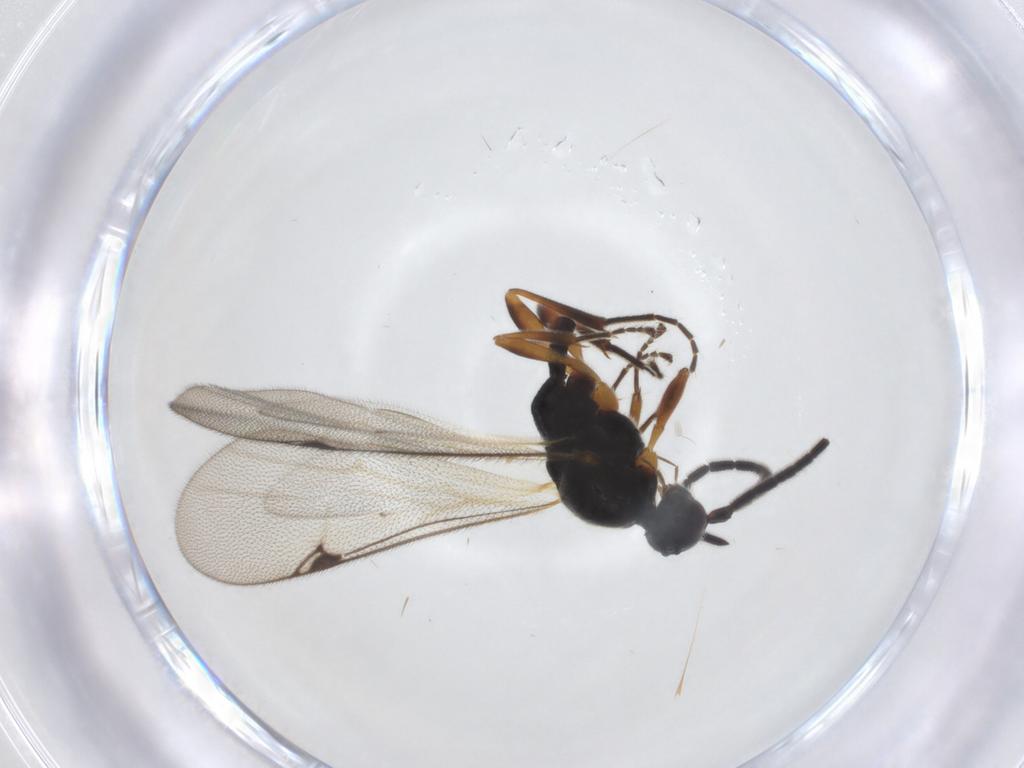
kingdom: Animalia
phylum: Arthropoda
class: Insecta
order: Hymenoptera
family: Proctotrupidae
